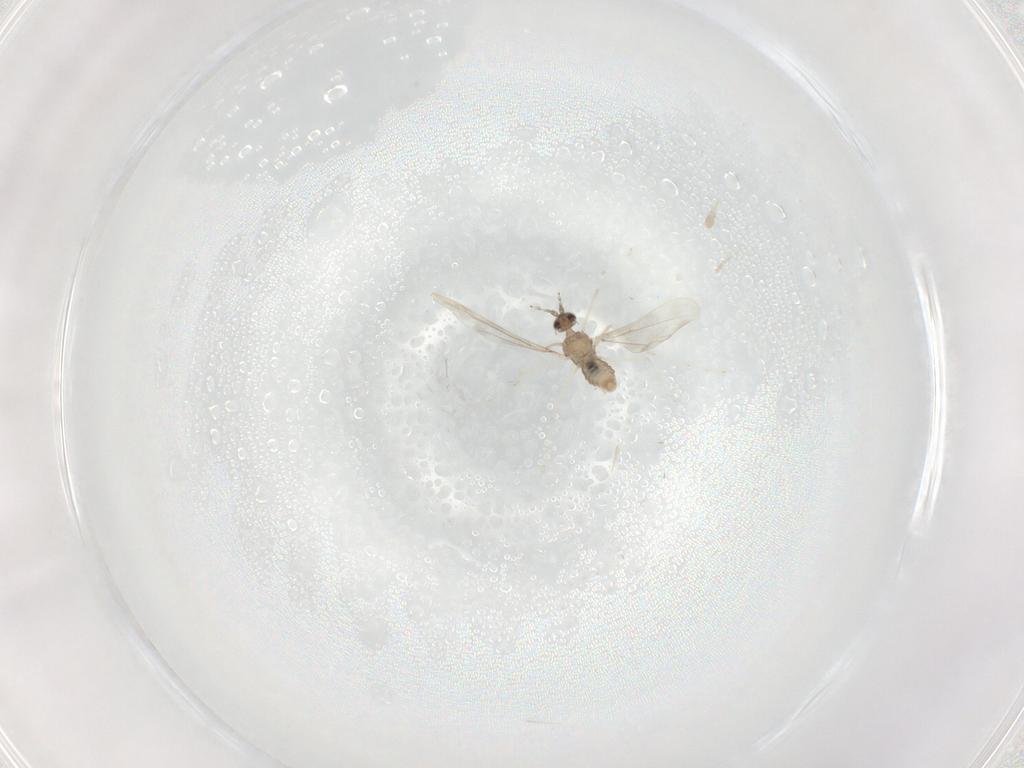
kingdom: Animalia
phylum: Arthropoda
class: Insecta
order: Diptera
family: Cecidomyiidae
